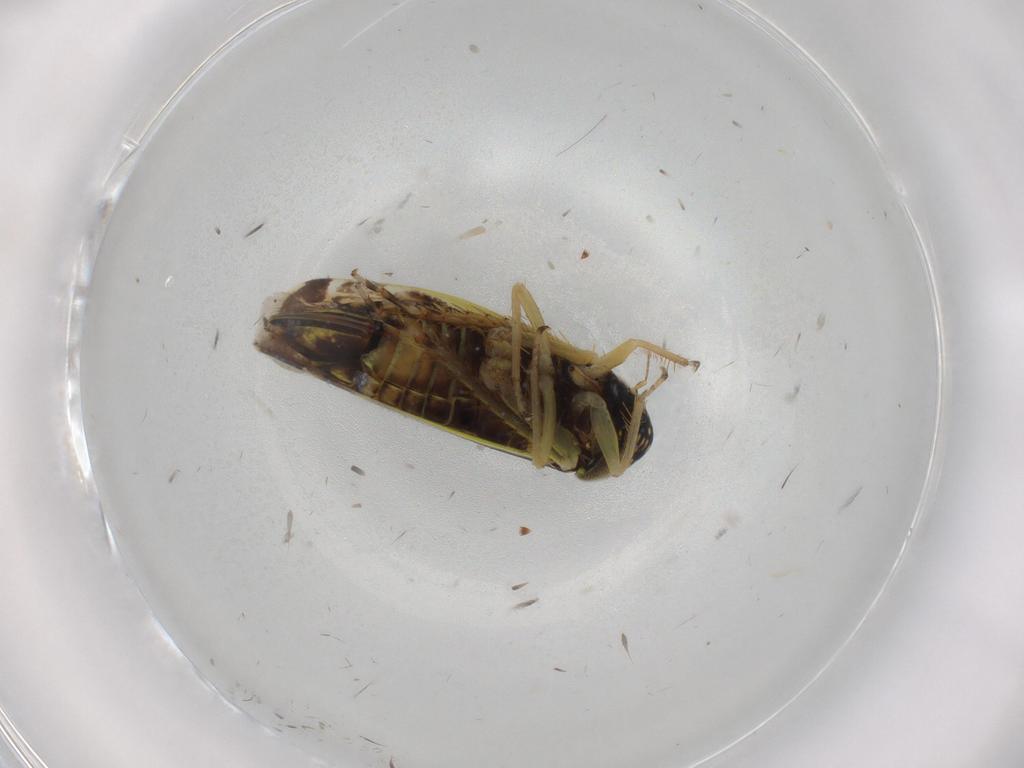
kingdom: Animalia
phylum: Arthropoda
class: Insecta
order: Hemiptera
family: Cicadellidae
